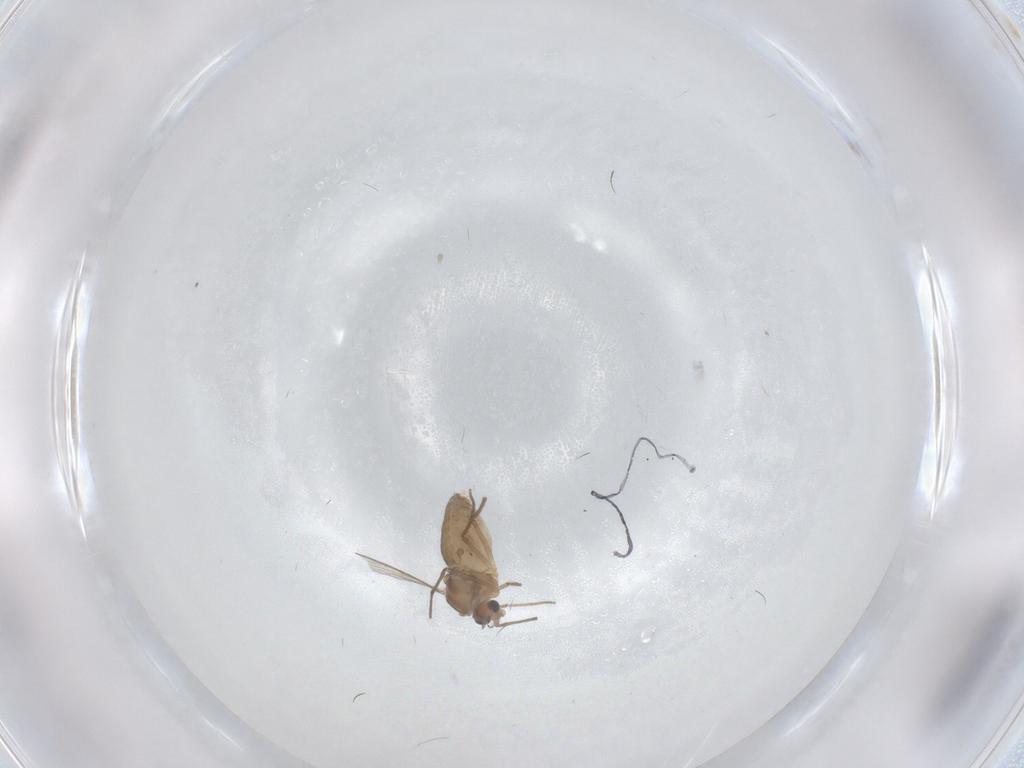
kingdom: Animalia
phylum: Arthropoda
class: Insecta
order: Diptera
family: Chironomidae
